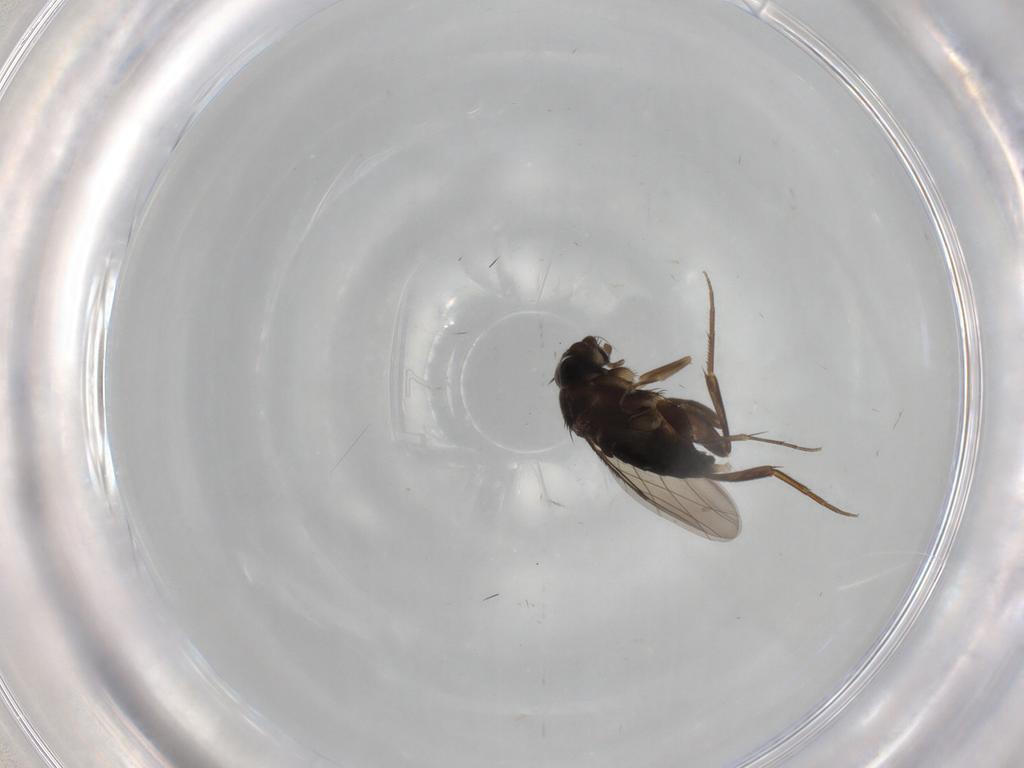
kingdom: Animalia
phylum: Arthropoda
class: Insecta
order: Diptera
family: Phoridae
